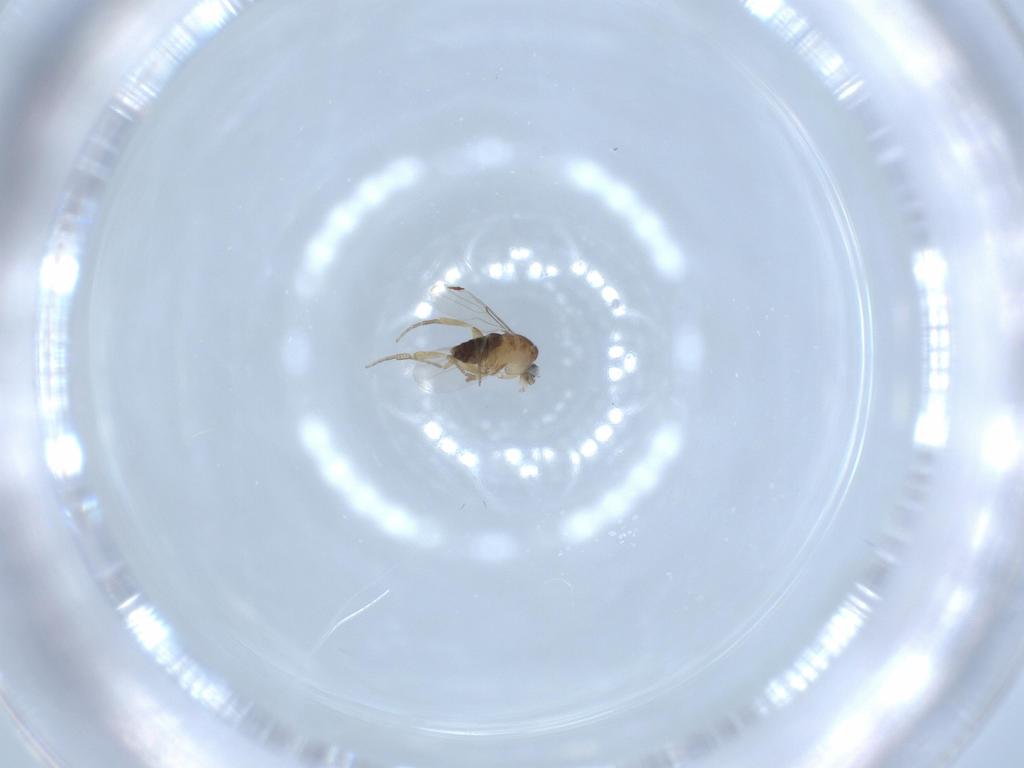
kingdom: Animalia
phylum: Arthropoda
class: Insecta
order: Diptera
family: Phoridae
